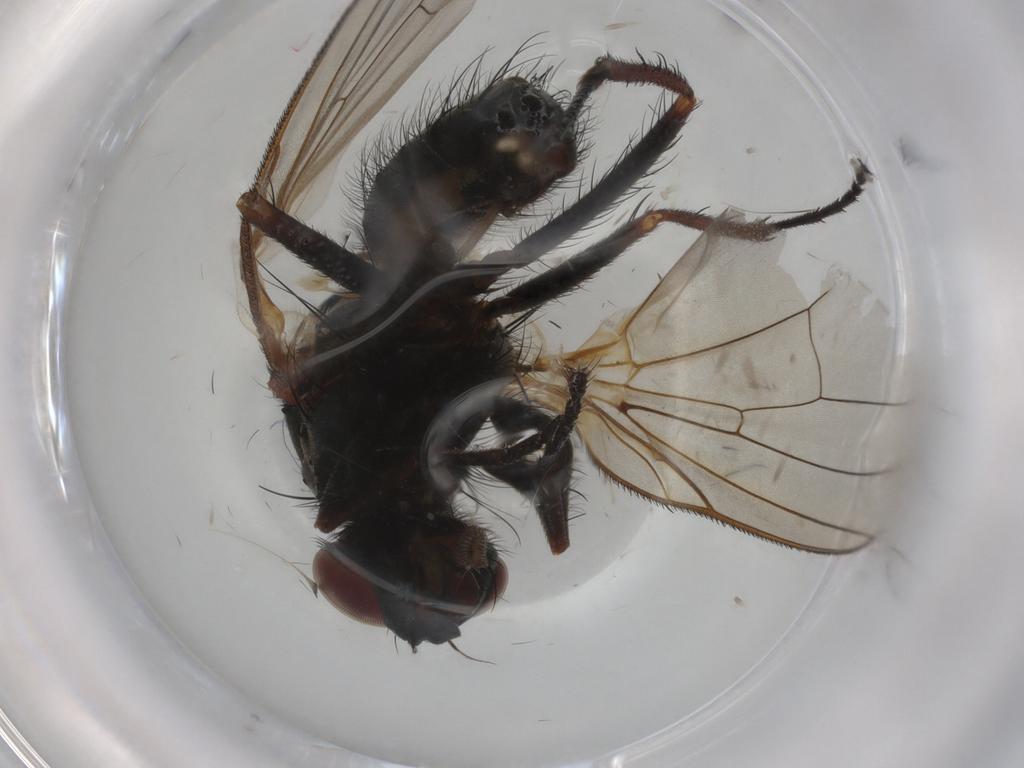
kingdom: Animalia
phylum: Arthropoda
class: Insecta
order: Diptera
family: Anthomyiidae
